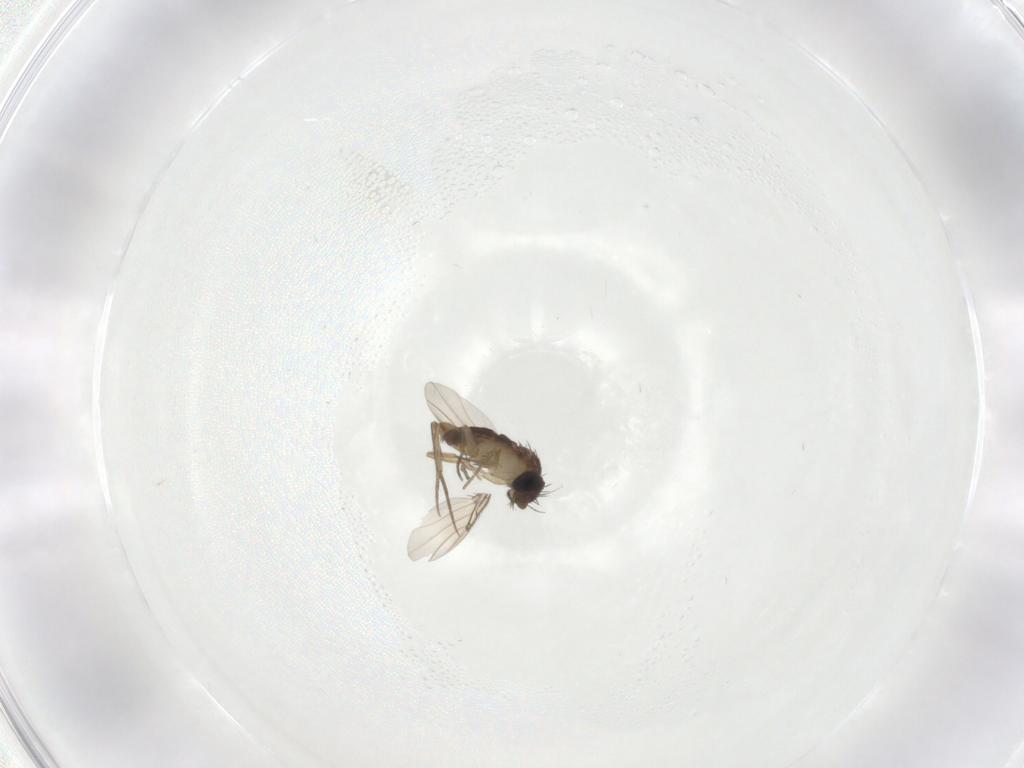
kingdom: Animalia
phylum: Arthropoda
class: Insecta
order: Diptera
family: Phoridae
